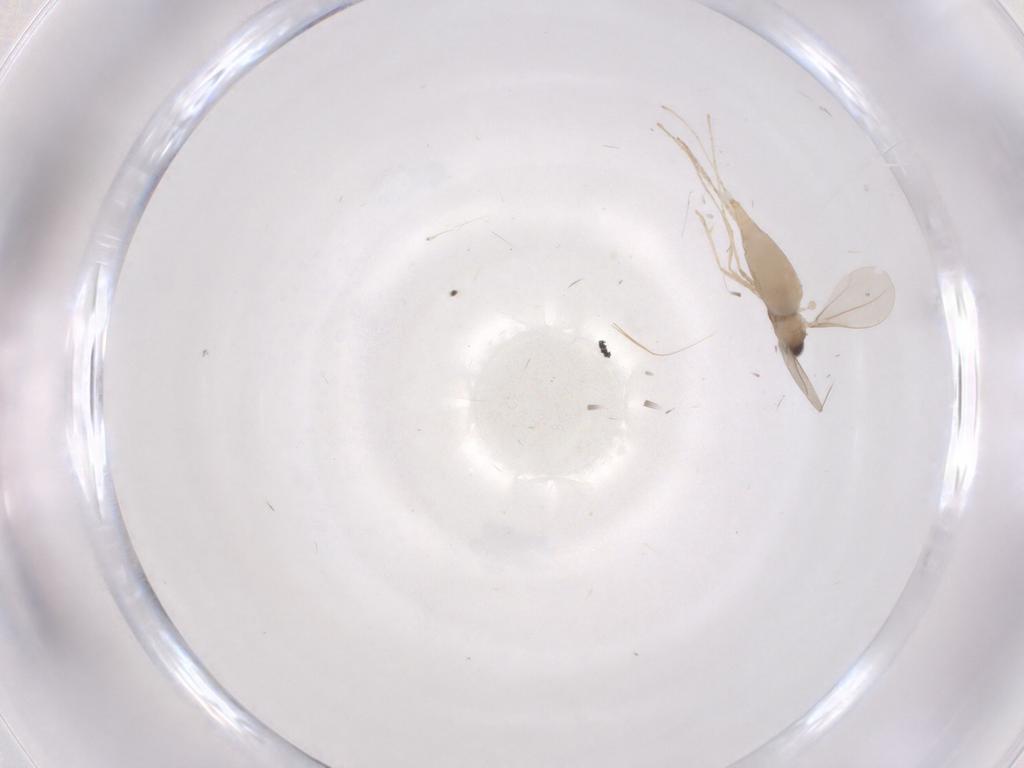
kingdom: Animalia
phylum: Arthropoda
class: Insecta
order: Diptera
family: Cecidomyiidae
